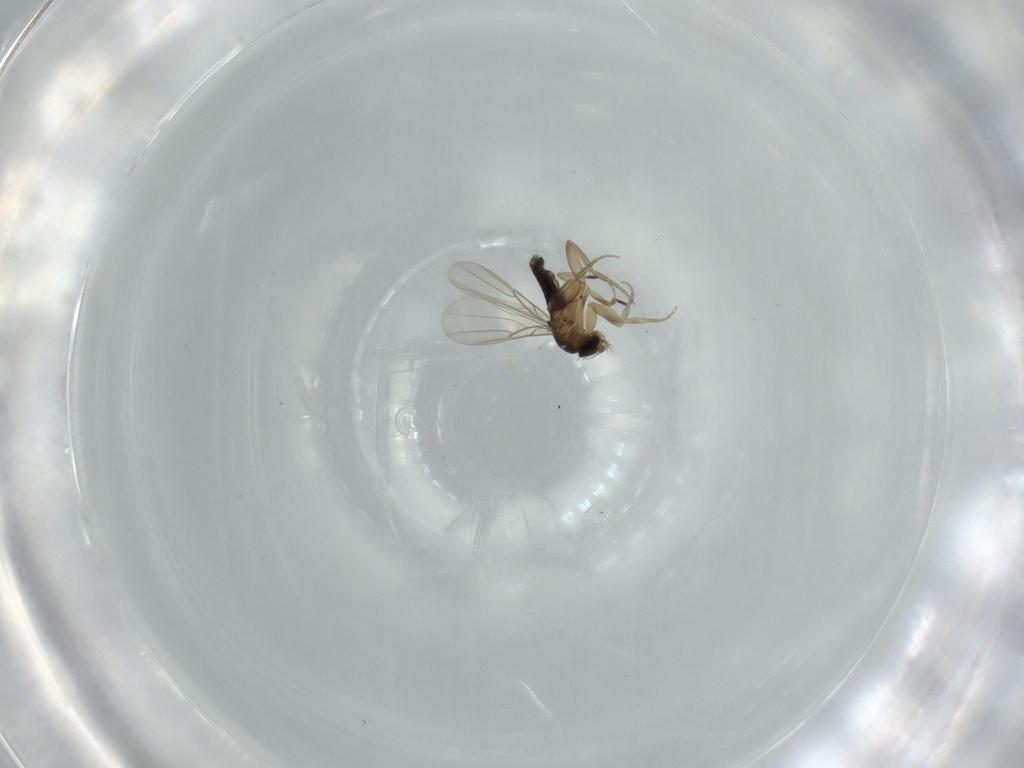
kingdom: Animalia
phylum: Arthropoda
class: Insecta
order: Diptera
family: Phoridae
